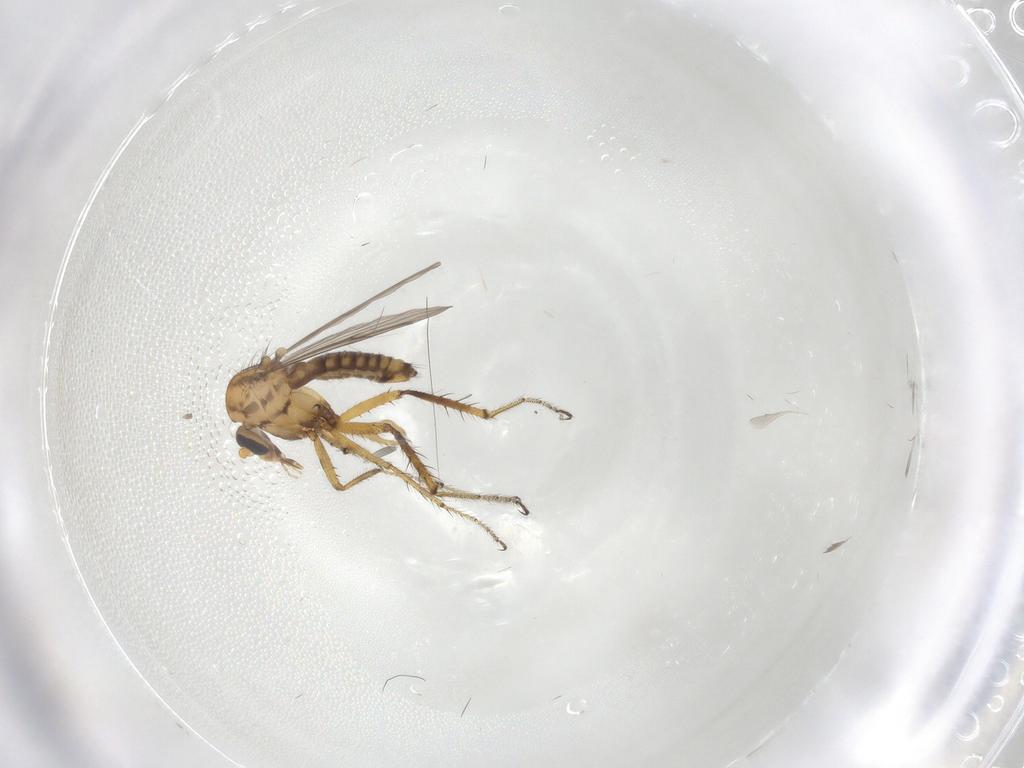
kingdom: Animalia
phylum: Arthropoda
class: Insecta
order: Diptera
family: Ceratopogonidae
